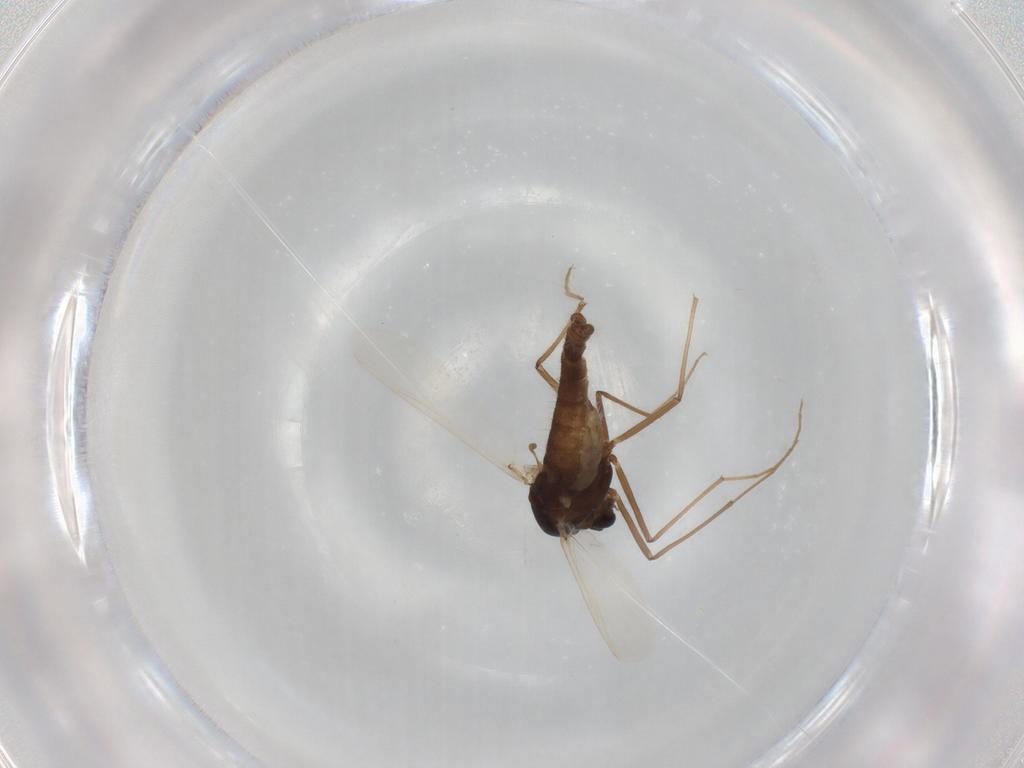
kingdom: Animalia
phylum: Arthropoda
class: Insecta
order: Diptera
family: Chironomidae
